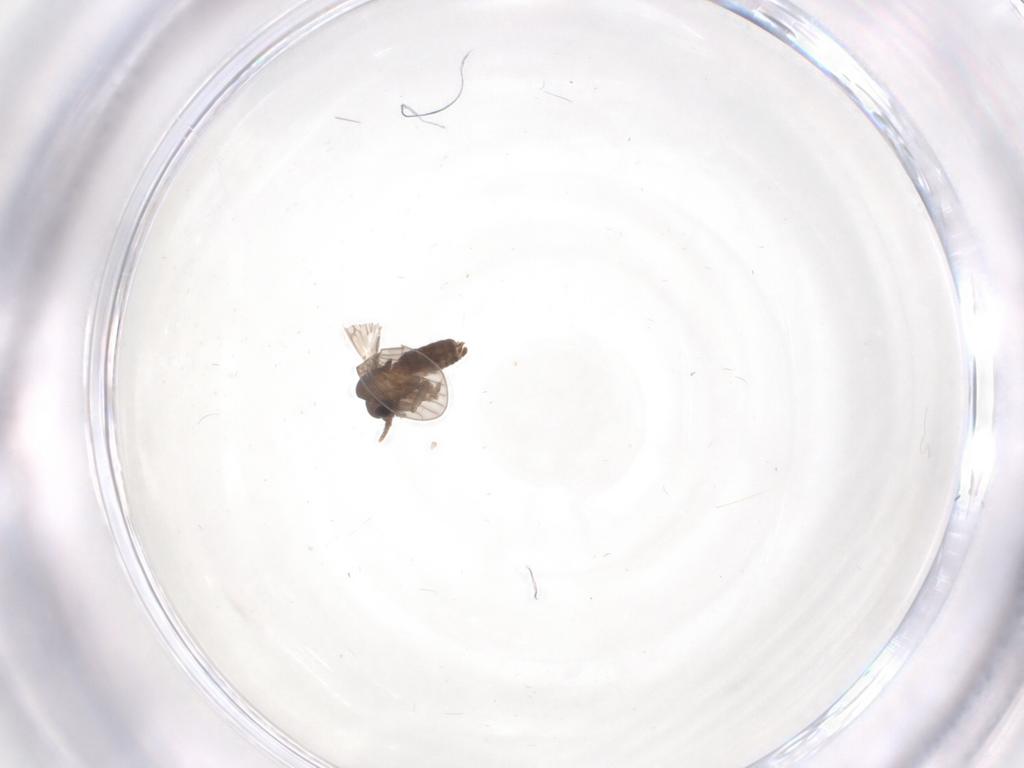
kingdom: Animalia
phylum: Arthropoda
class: Insecta
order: Diptera
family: Psychodidae
